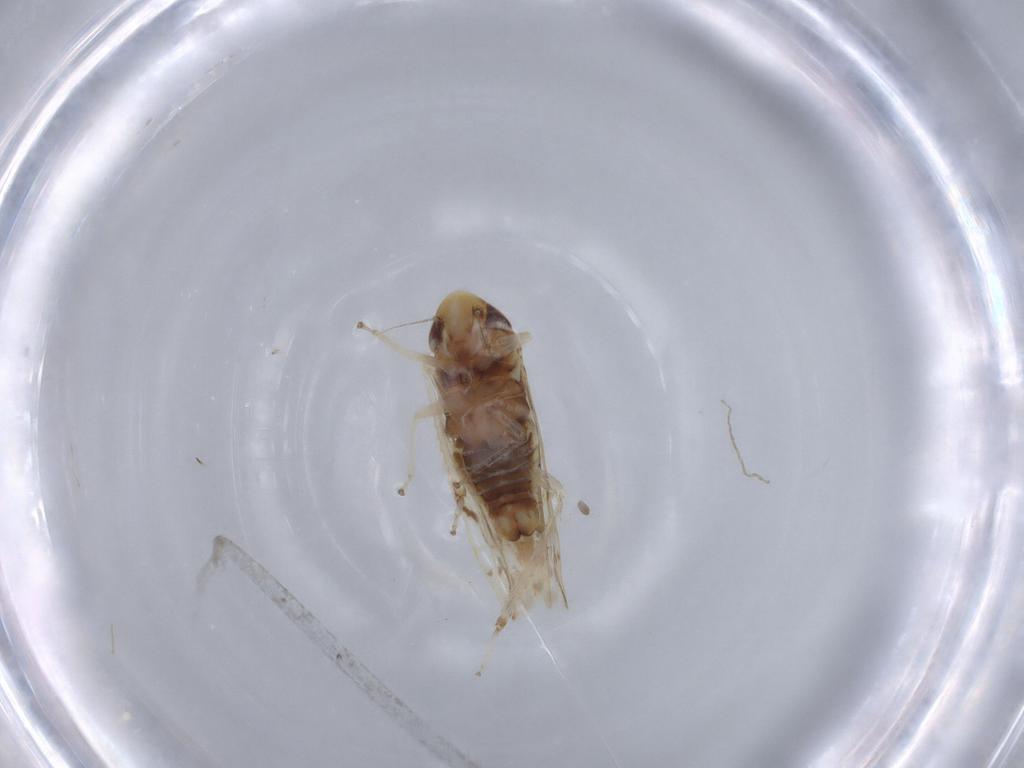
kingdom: Animalia
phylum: Arthropoda
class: Insecta
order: Hemiptera
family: Cicadellidae
